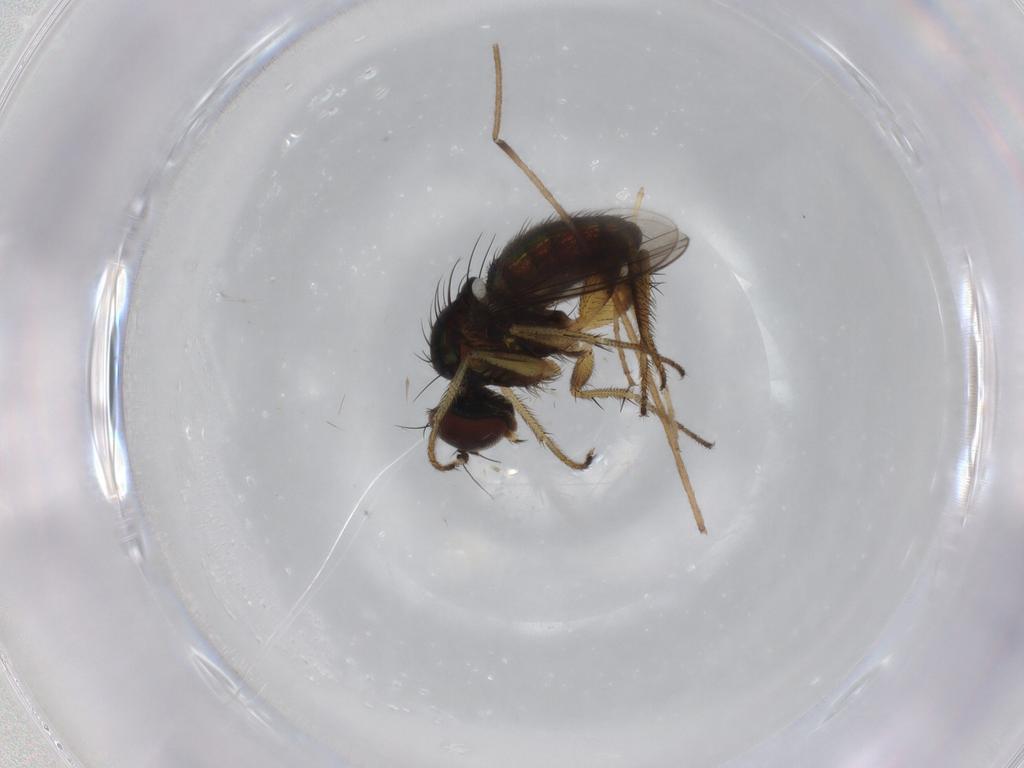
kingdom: Animalia
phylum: Arthropoda
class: Insecta
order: Diptera
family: Dolichopodidae
